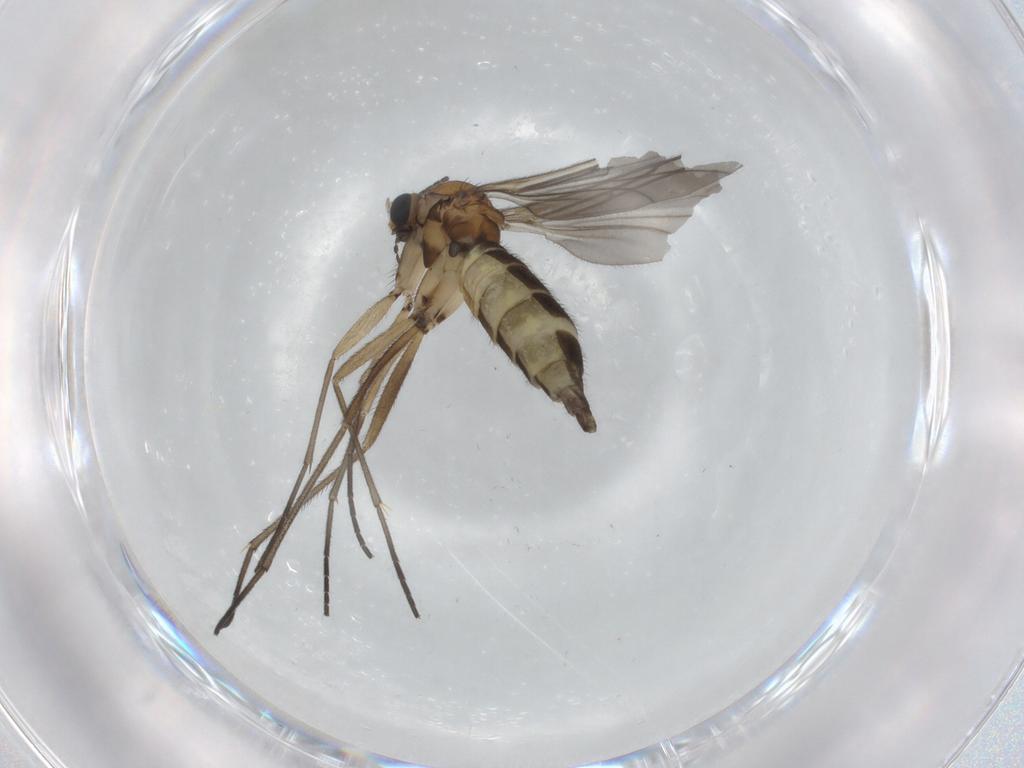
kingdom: Animalia
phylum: Arthropoda
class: Insecta
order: Diptera
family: Sciaridae
